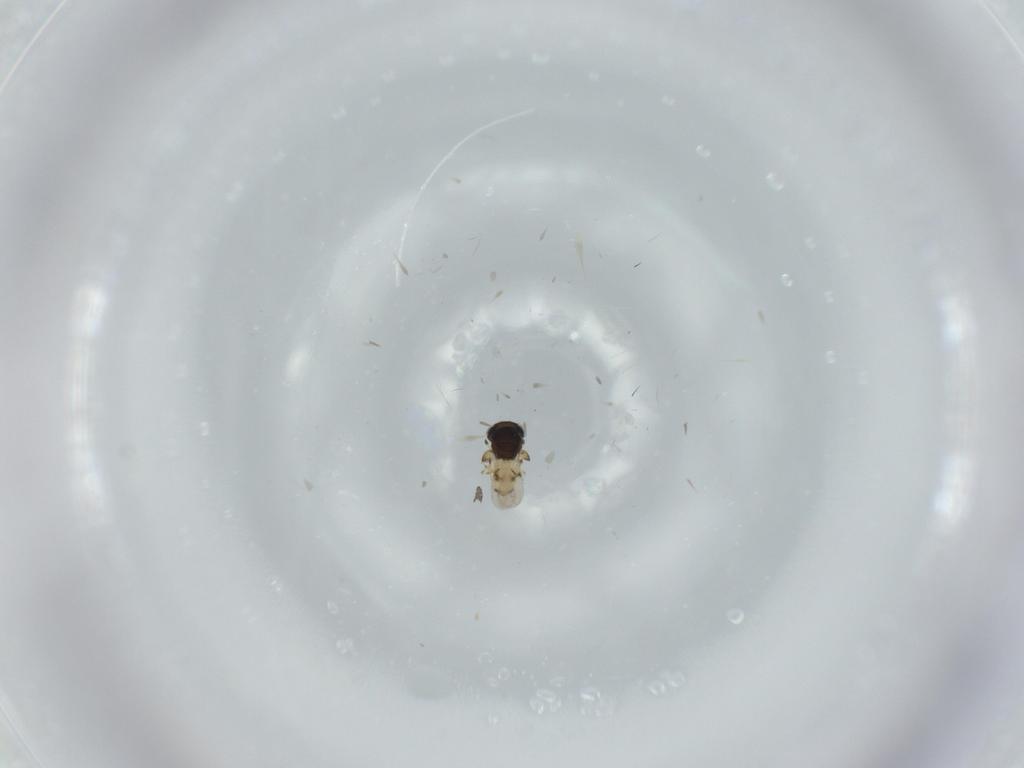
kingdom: Animalia
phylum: Arthropoda
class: Insecta
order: Hymenoptera
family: Scelionidae
